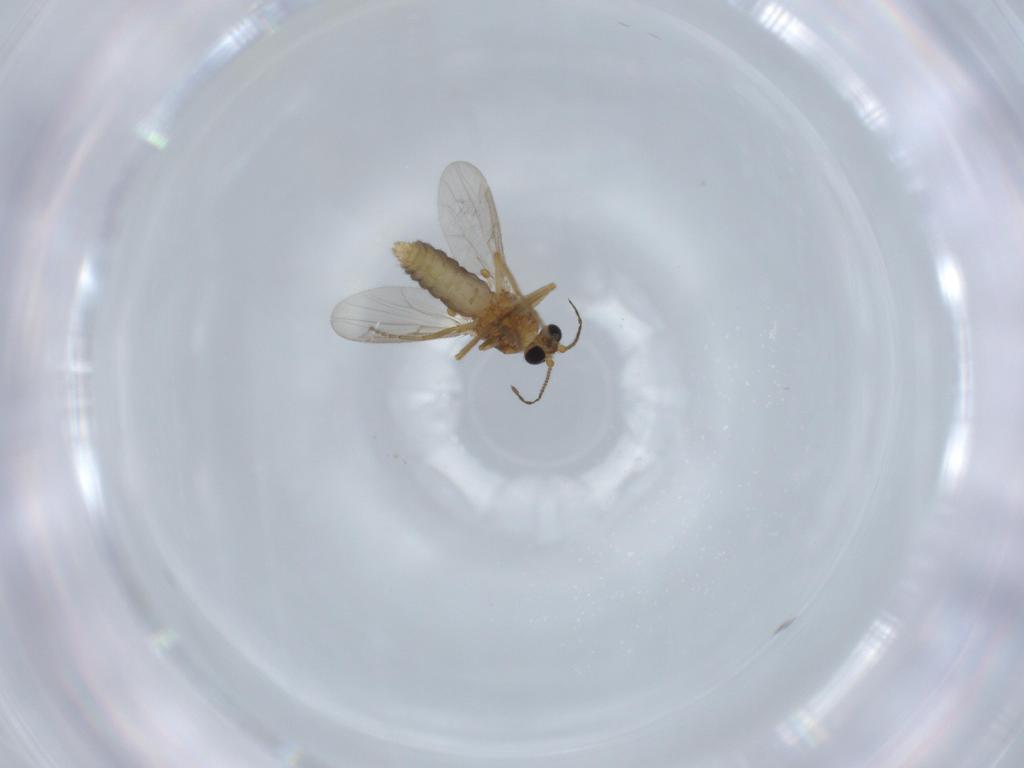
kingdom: Animalia
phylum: Arthropoda
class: Insecta
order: Diptera
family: Ceratopogonidae
